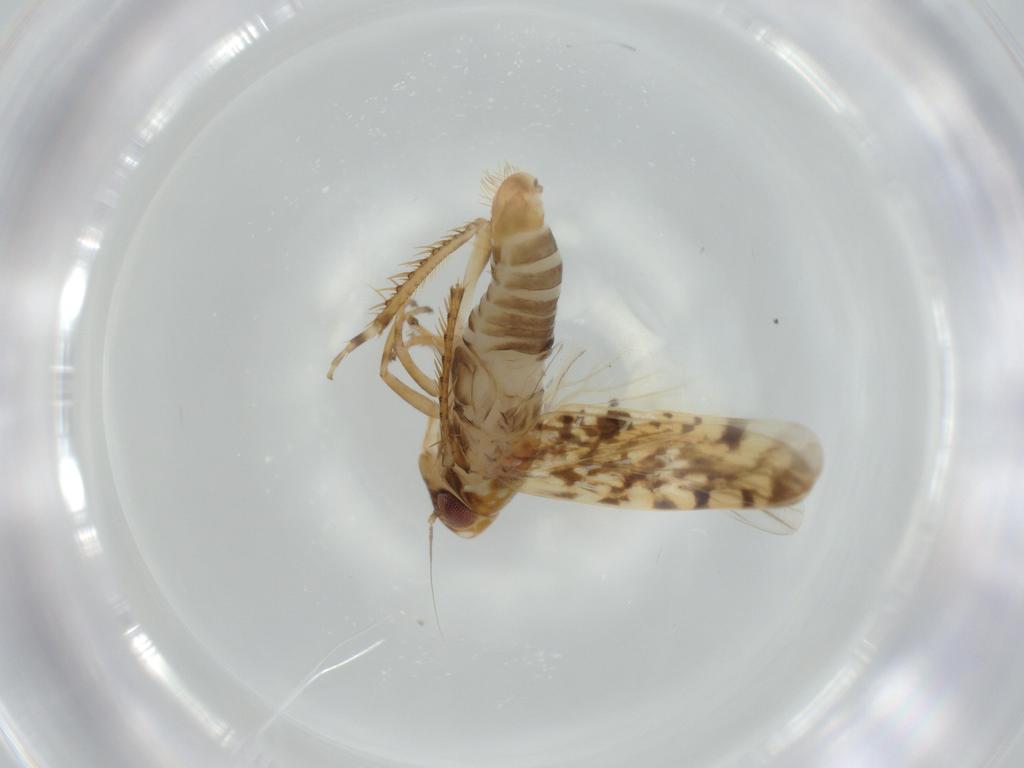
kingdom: Animalia
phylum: Arthropoda
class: Insecta
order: Hemiptera
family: Cicadellidae
